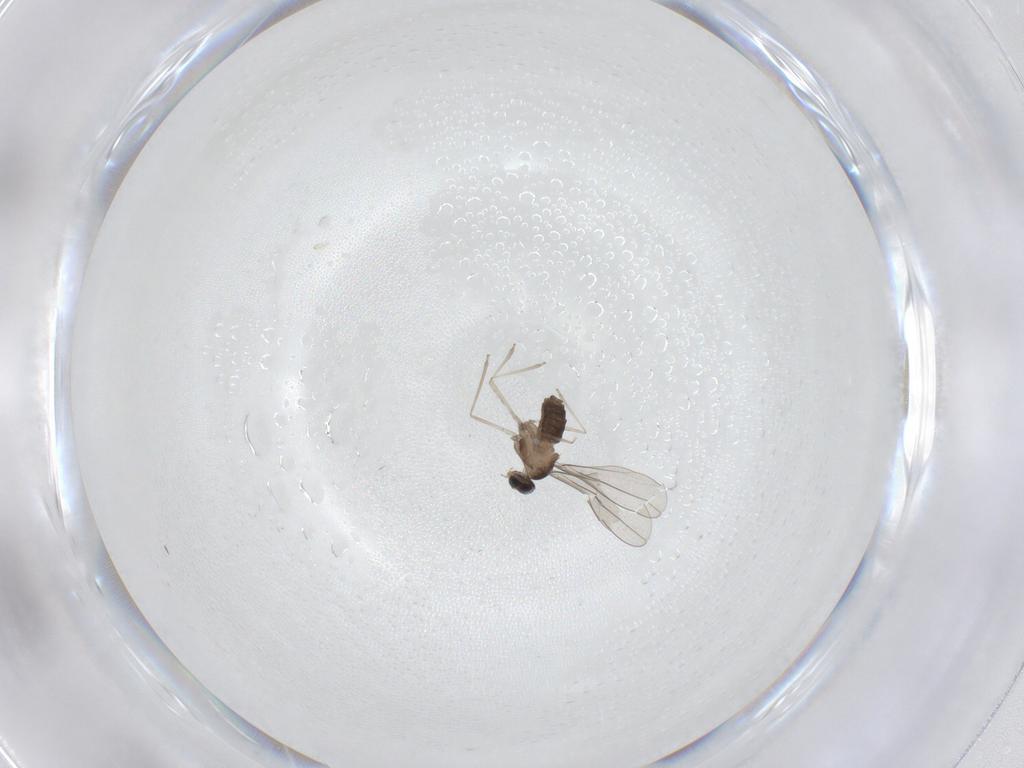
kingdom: Animalia
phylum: Arthropoda
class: Insecta
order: Diptera
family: Cecidomyiidae
